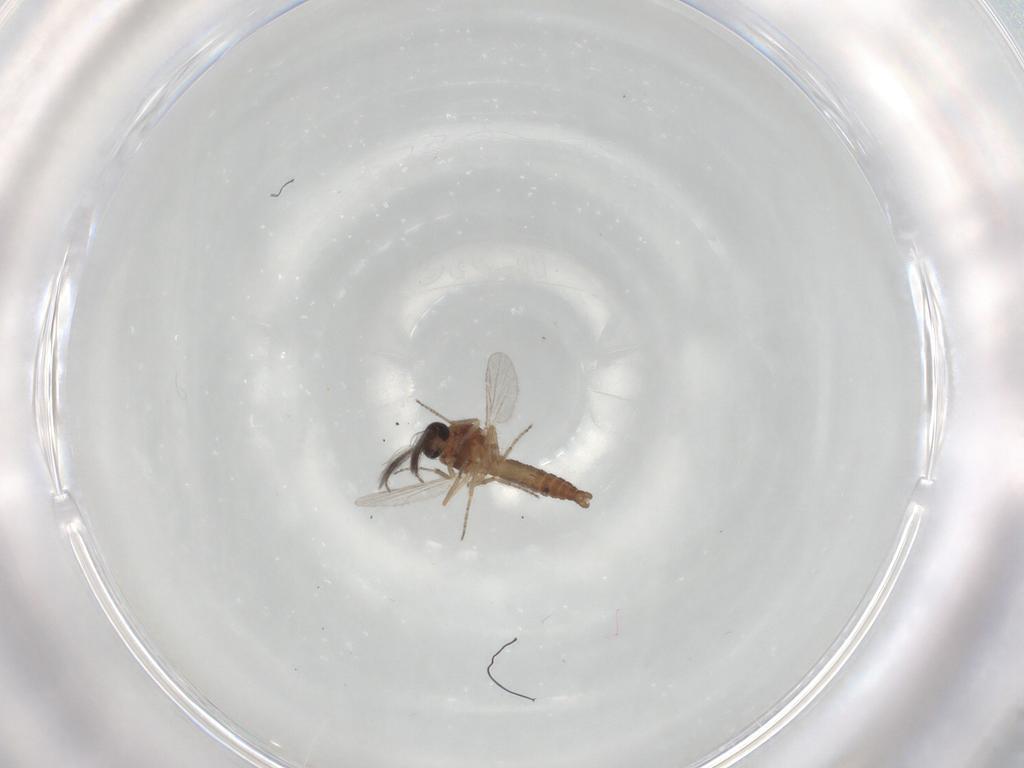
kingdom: Animalia
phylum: Arthropoda
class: Insecta
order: Diptera
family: Ceratopogonidae
